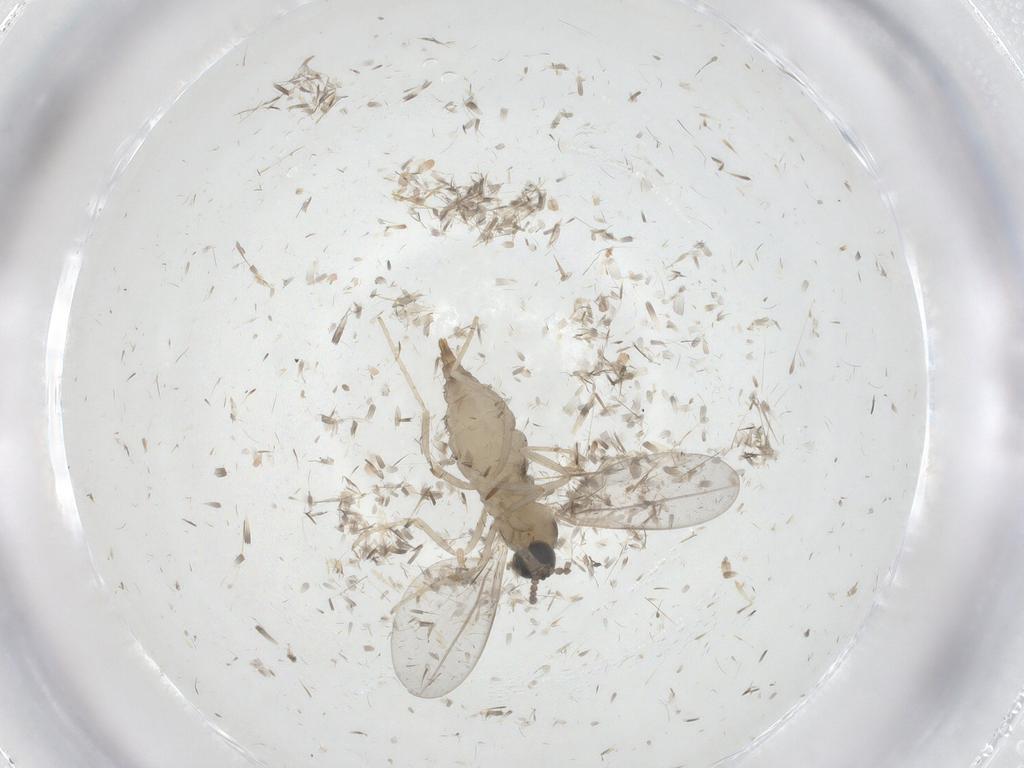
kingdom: Animalia
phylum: Arthropoda
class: Insecta
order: Diptera
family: Cecidomyiidae
